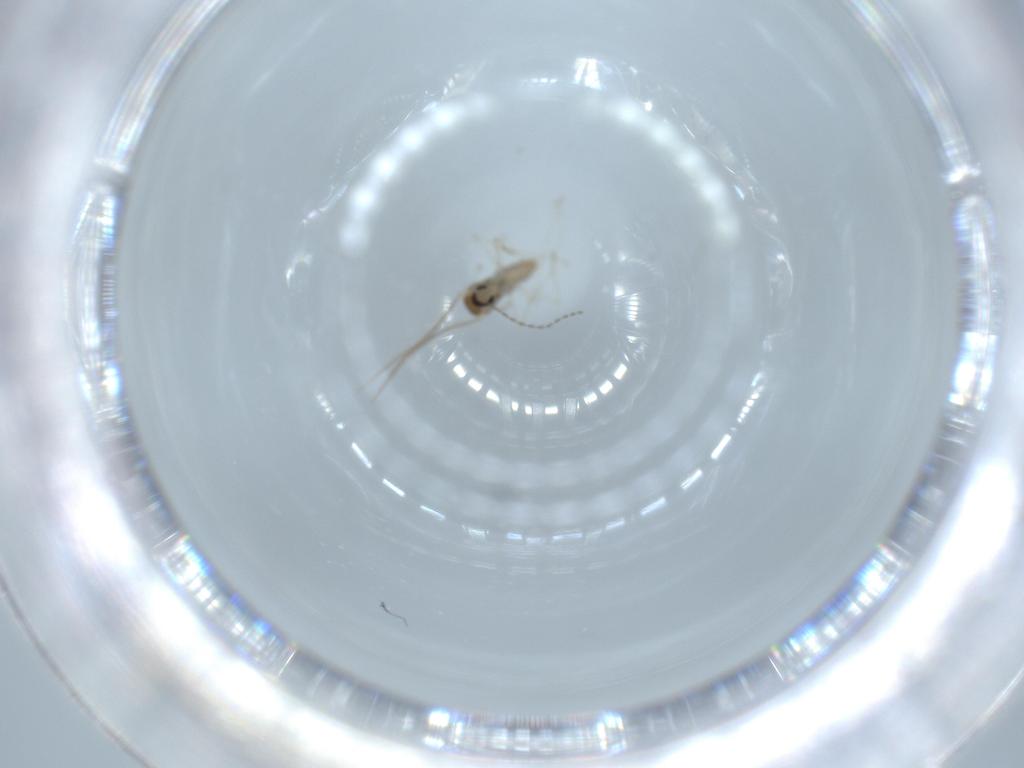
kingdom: Animalia
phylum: Arthropoda
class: Insecta
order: Diptera
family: Cecidomyiidae
